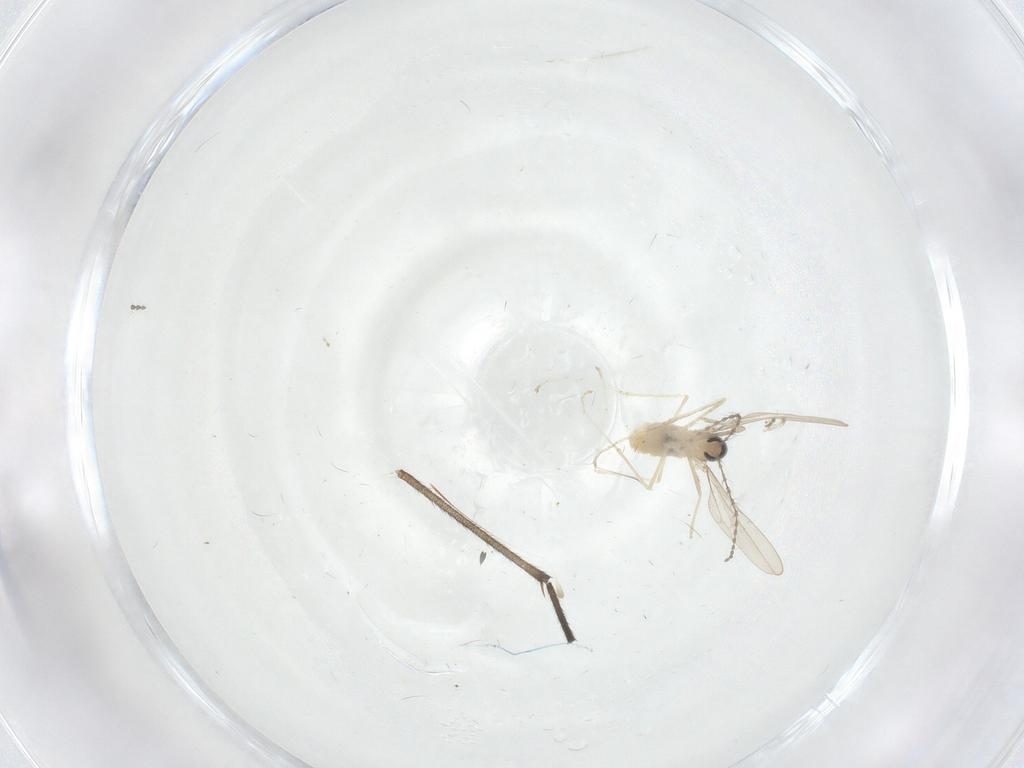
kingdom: Animalia
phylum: Arthropoda
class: Insecta
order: Diptera
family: Cecidomyiidae
